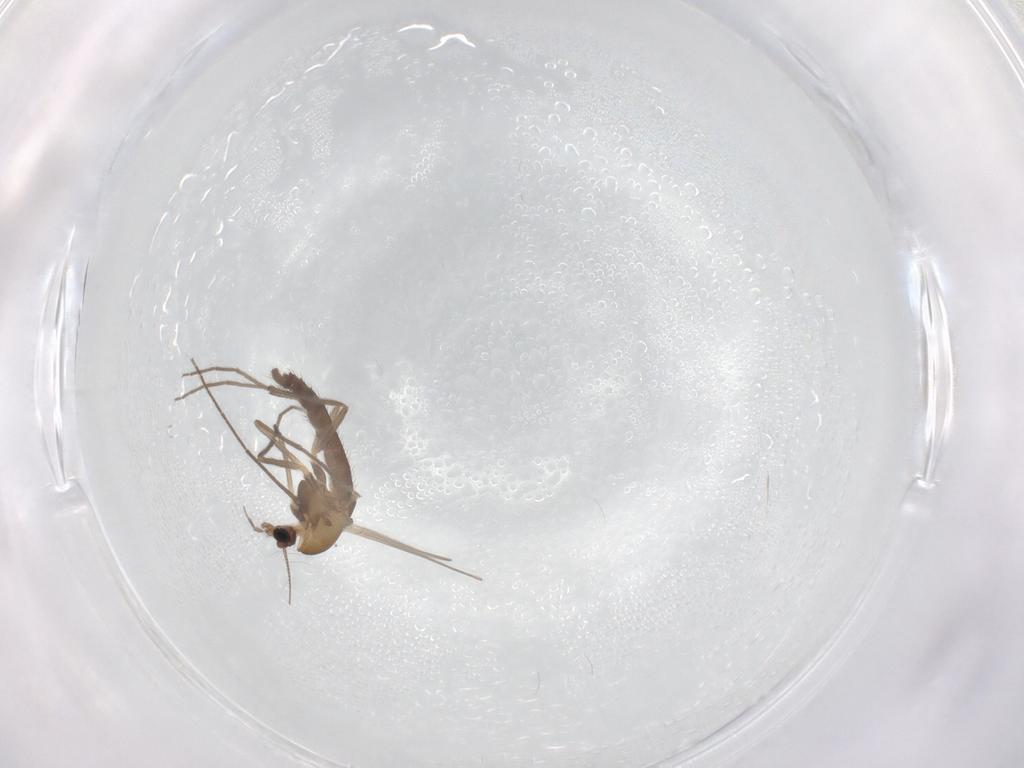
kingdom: Animalia
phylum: Arthropoda
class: Insecta
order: Diptera
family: Chironomidae
